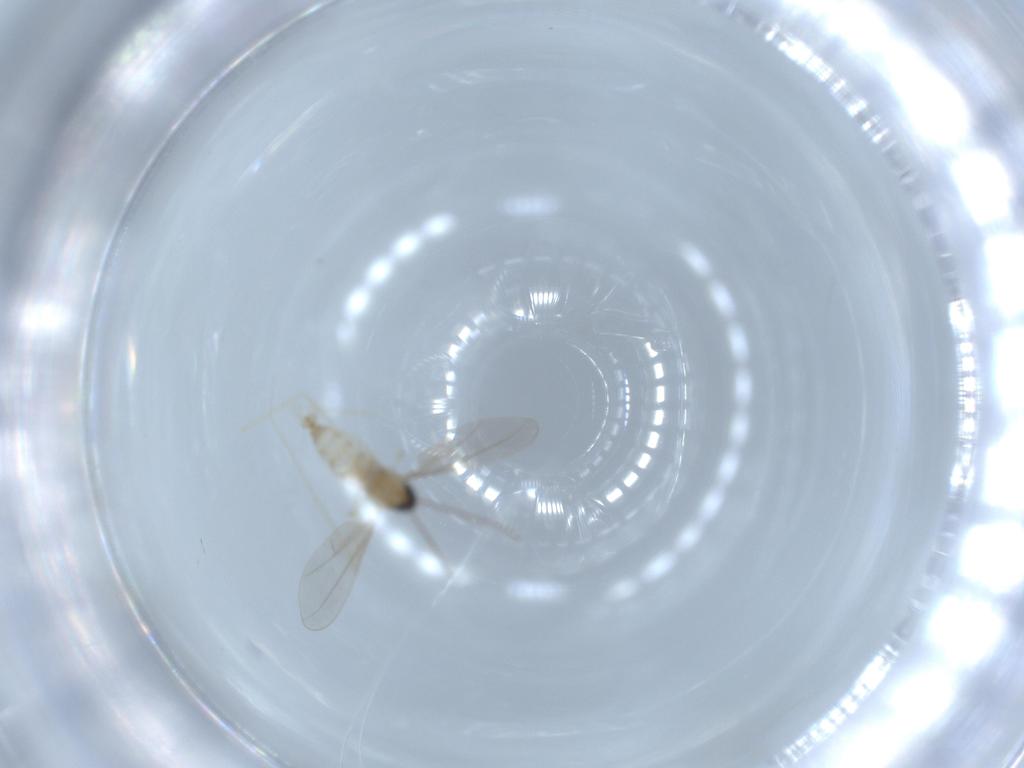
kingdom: Animalia
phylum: Arthropoda
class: Insecta
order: Diptera
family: Cecidomyiidae
